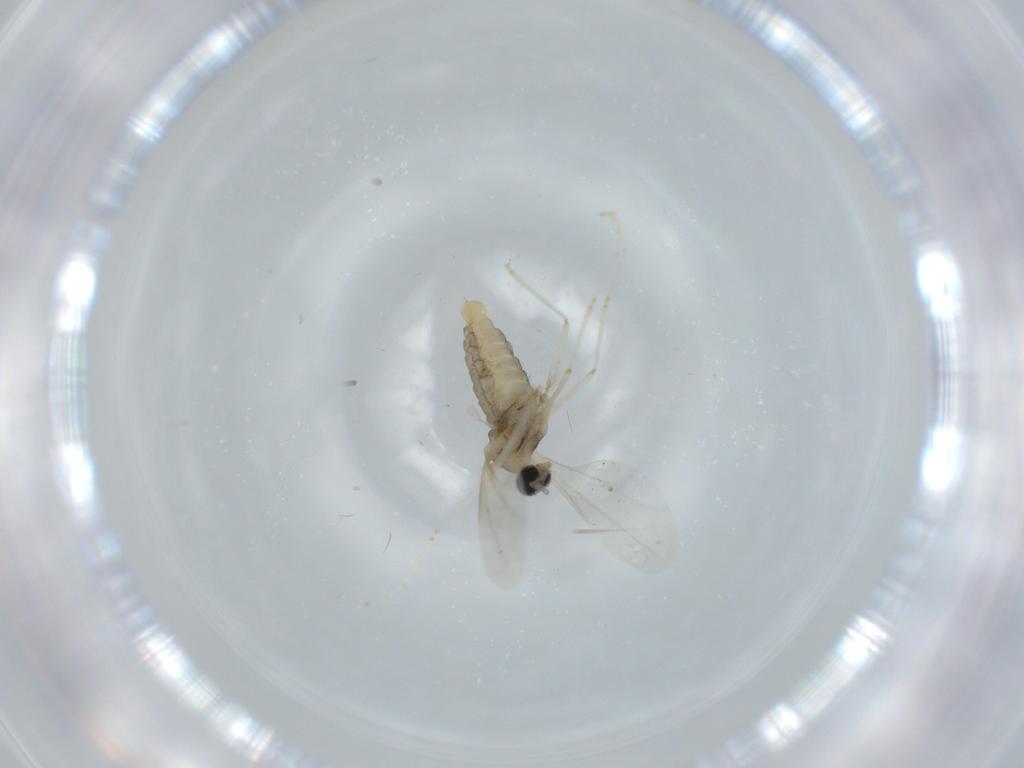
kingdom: Animalia
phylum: Arthropoda
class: Insecta
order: Diptera
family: Cecidomyiidae
